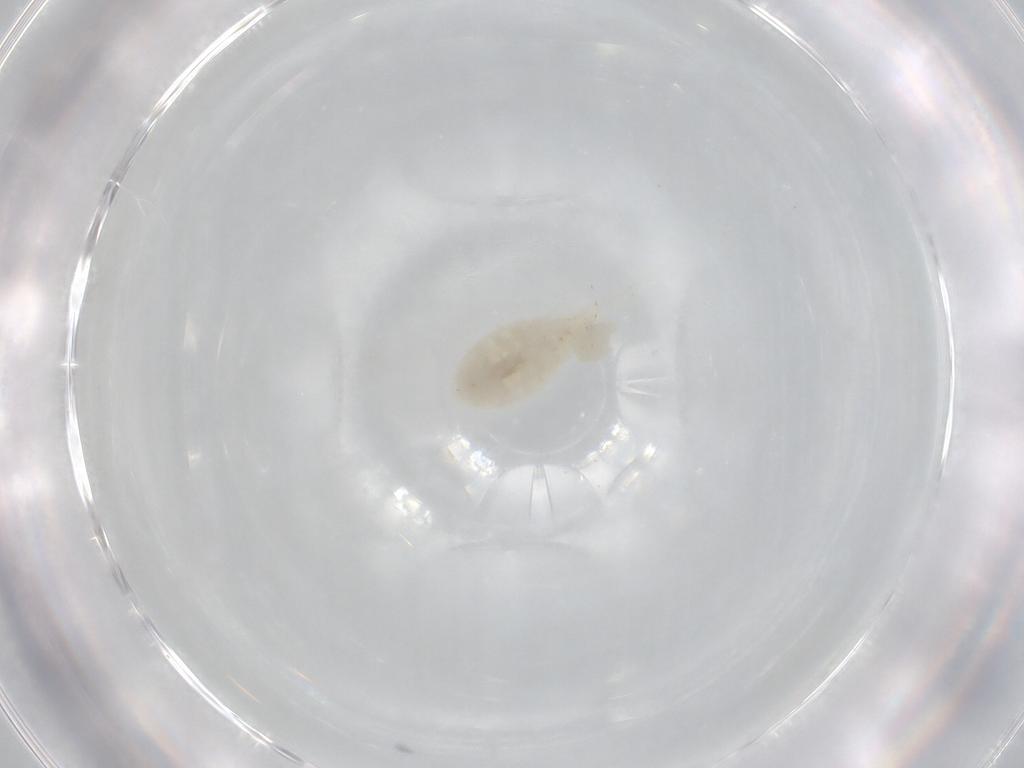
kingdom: Animalia
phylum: Arthropoda
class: Copepoda
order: Cyclopoida
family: Cyclopidae
